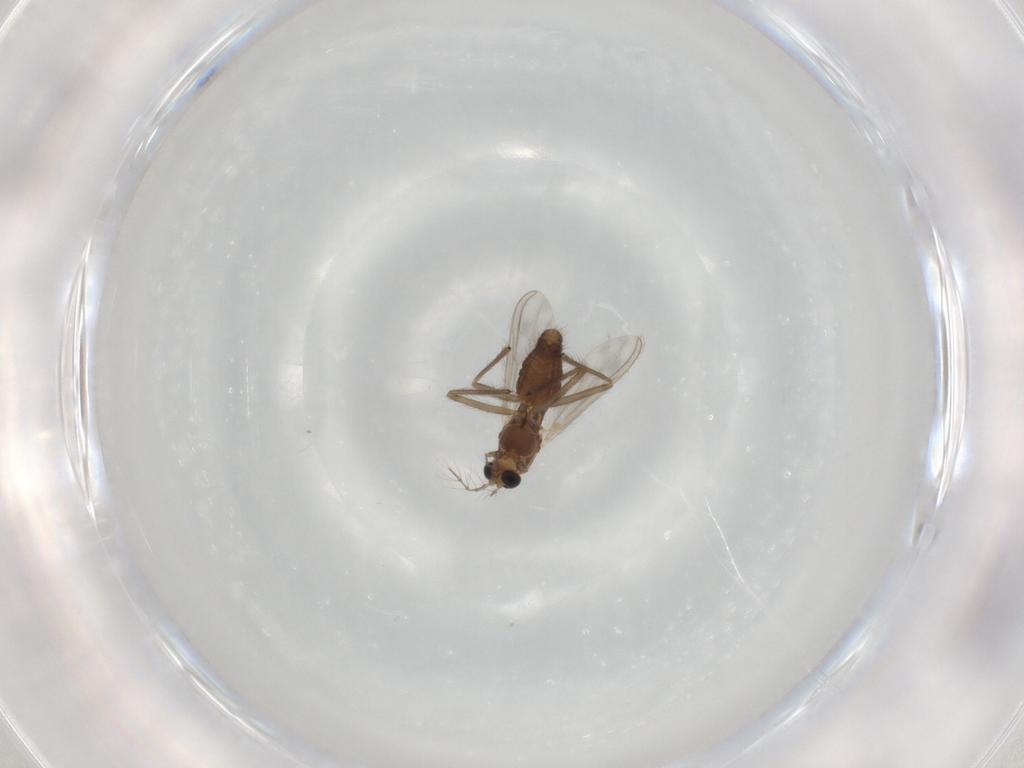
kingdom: Animalia
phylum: Arthropoda
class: Insecta
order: Diptera
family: Chironomidae
